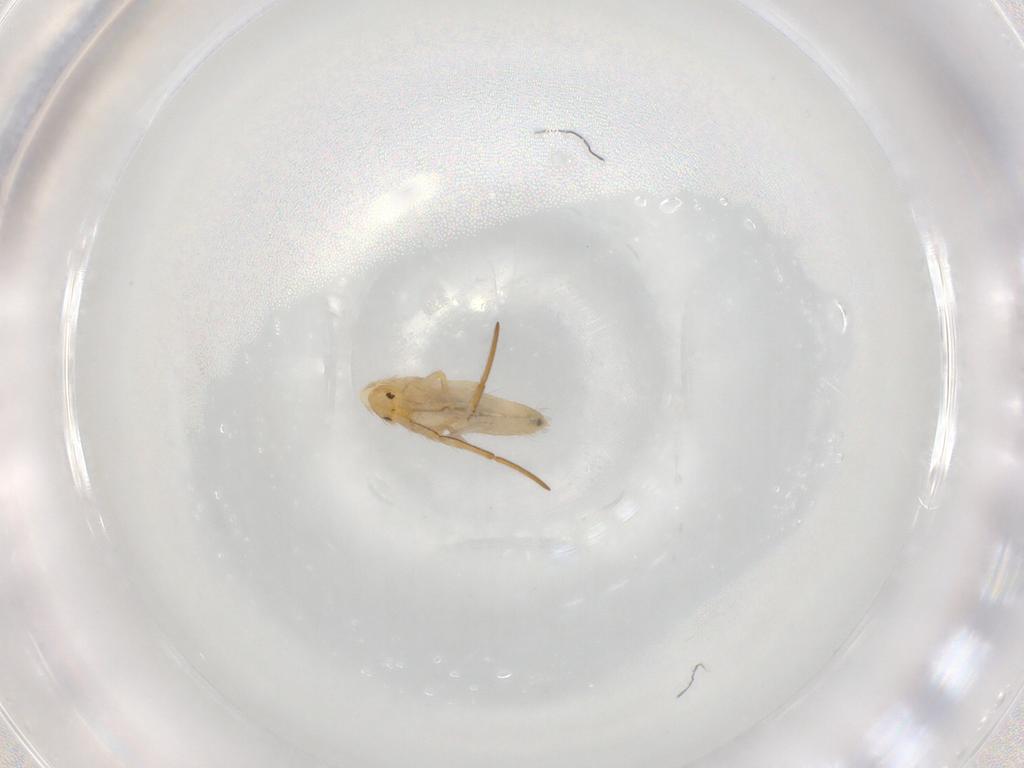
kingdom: Animalia
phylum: Arthropoda
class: Collembola
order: Entomobryomorpha
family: Entomobryidae
